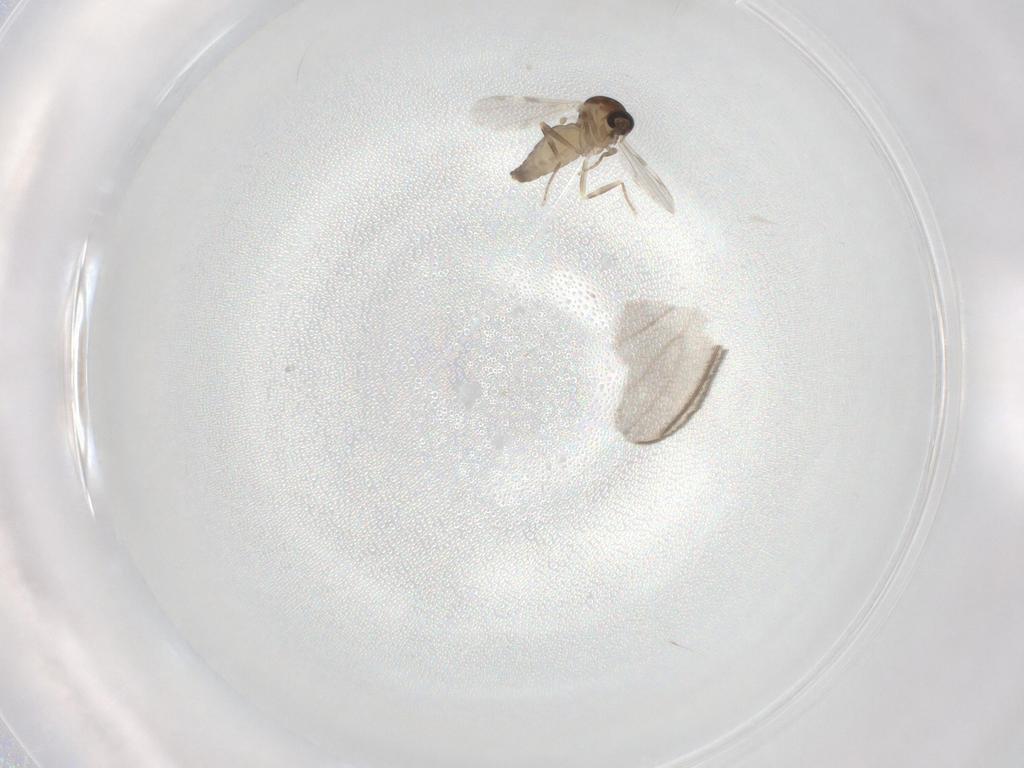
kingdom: Animalia
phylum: Arthropoda
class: Insecta
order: Diptera
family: Ceratopogonidae
